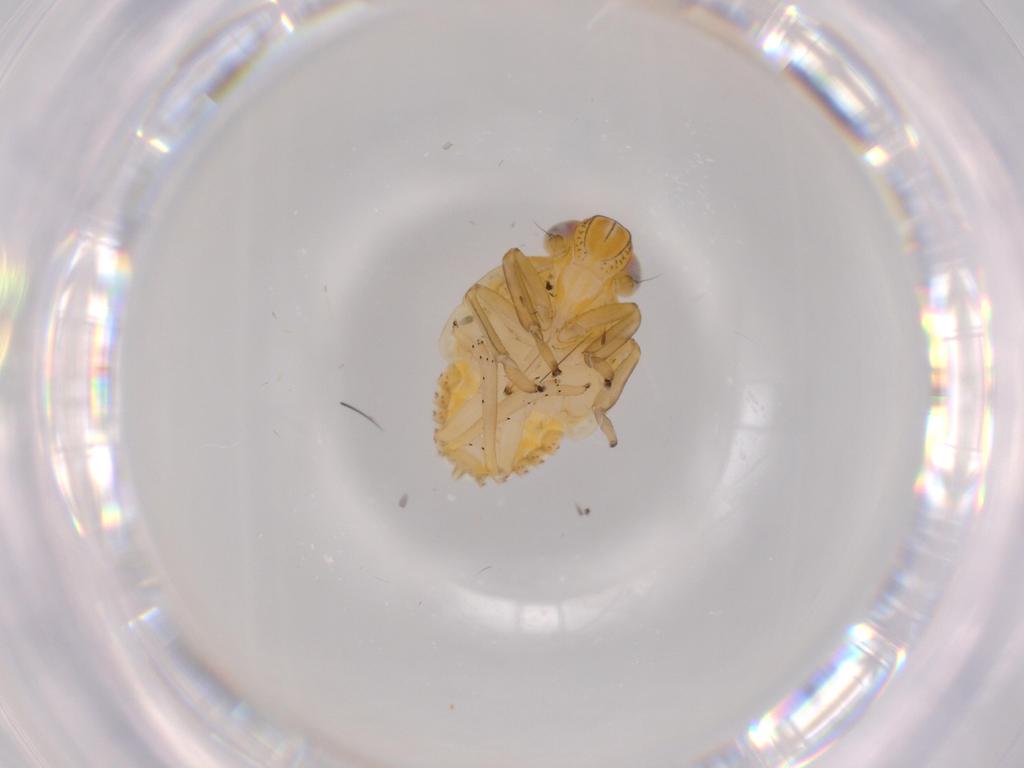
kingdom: Animalia
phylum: Arthropoda
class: Insecta
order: Hemiptera
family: Issidae
